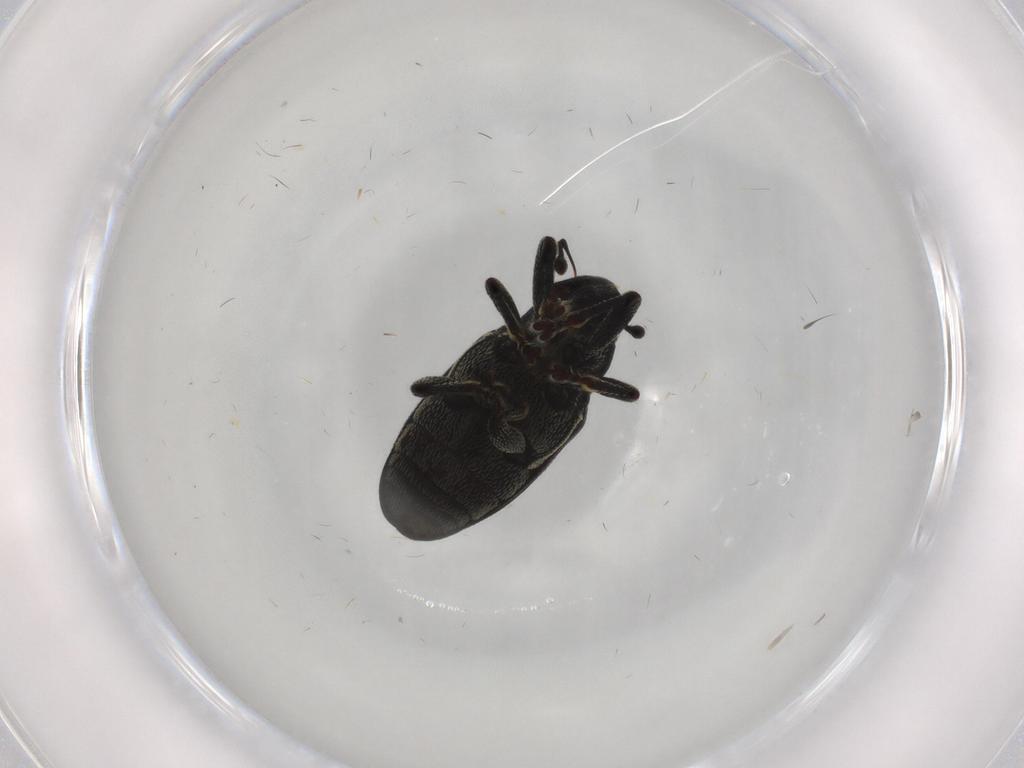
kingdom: Animalia
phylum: Arthropoda
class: Insecta
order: Coleoptera
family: Curculionidae
